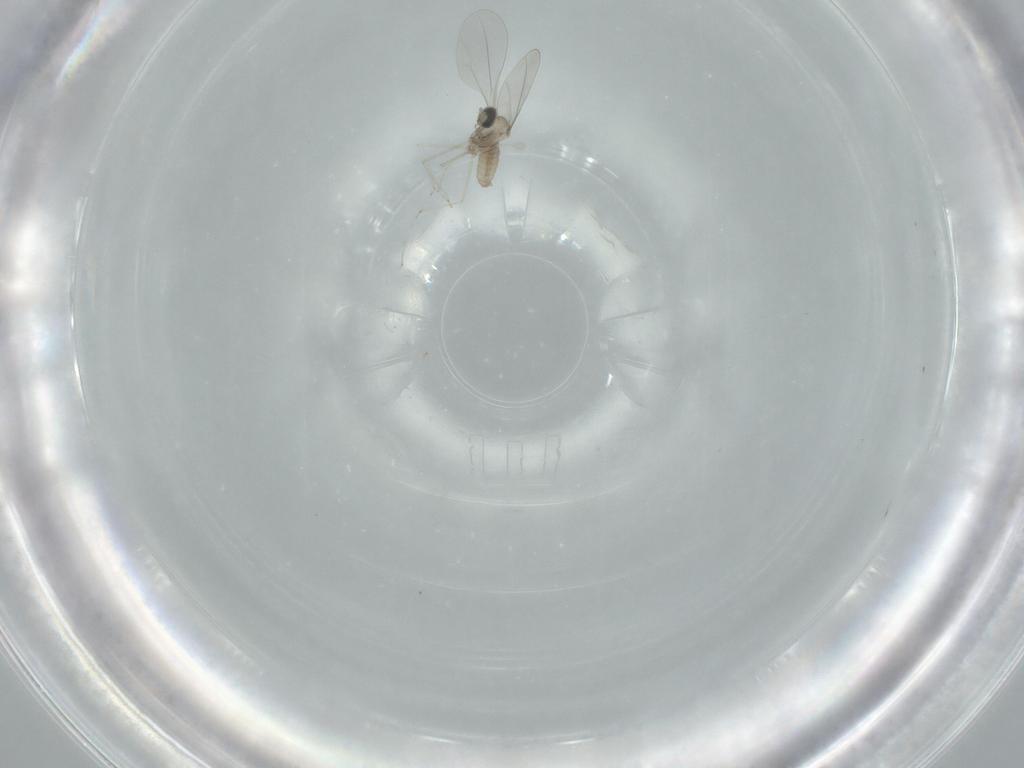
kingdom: Animalia
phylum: Arthropoda
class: Insecta
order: Diptera
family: Cecidomyiidae
